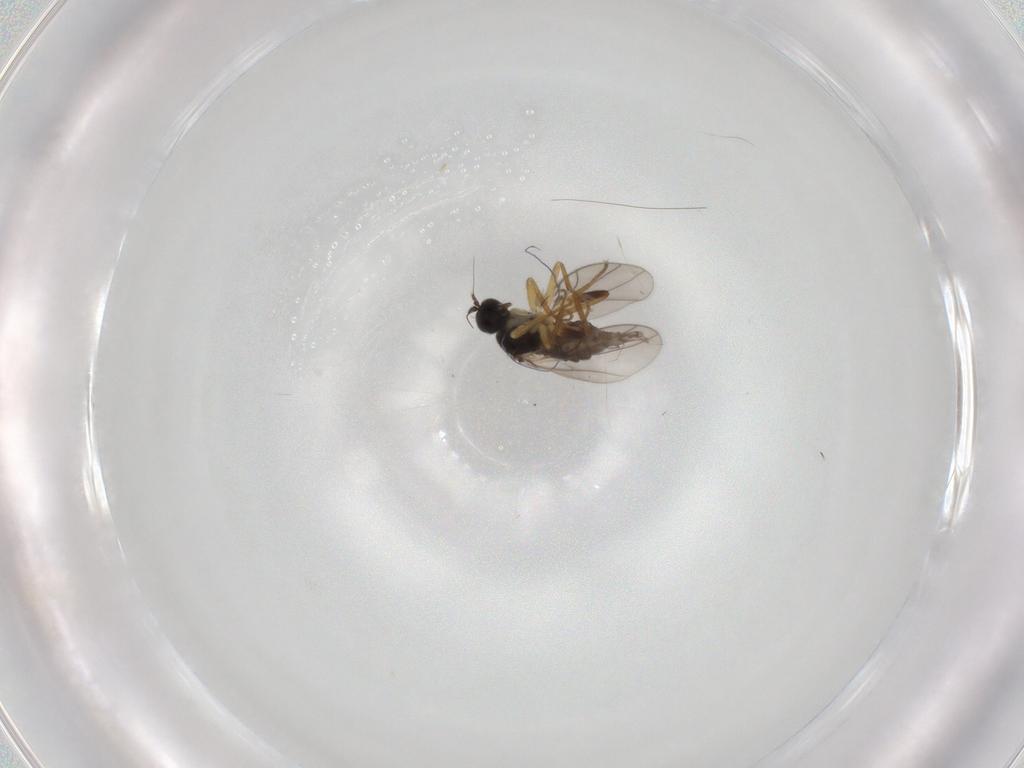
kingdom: Animalia
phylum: Arthropoda
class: Insecta
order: Diptera
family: Hybotidae
